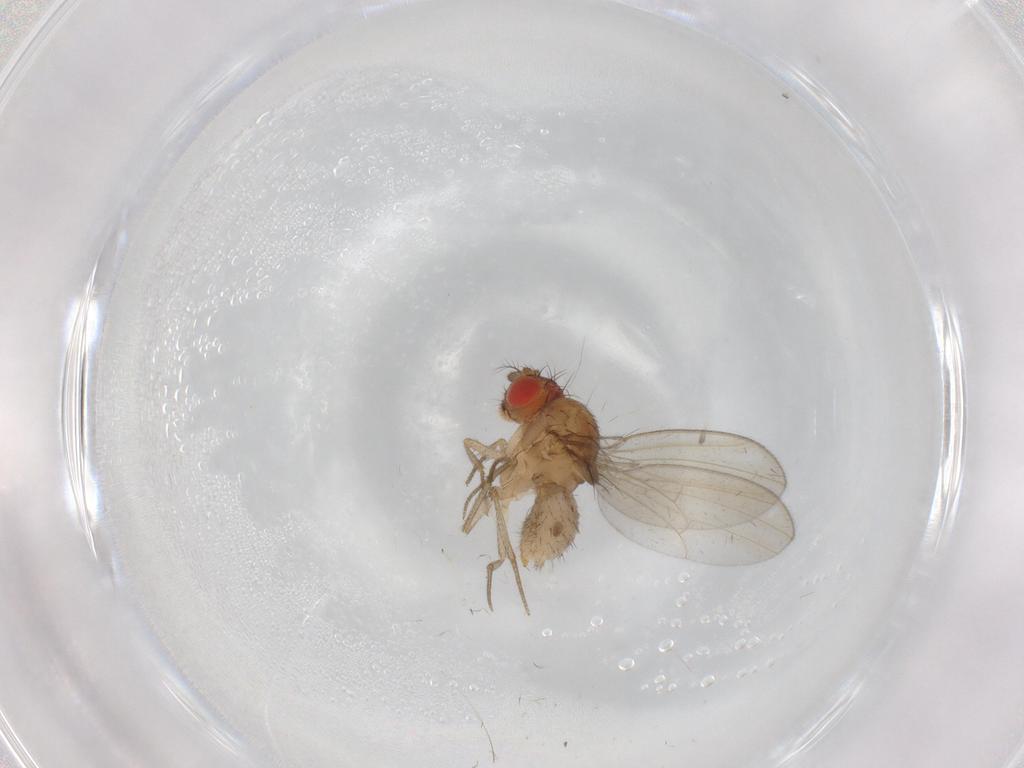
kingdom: Animalia
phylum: Arthropoda
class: Insecta
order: Diptera
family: Drosophilidae
